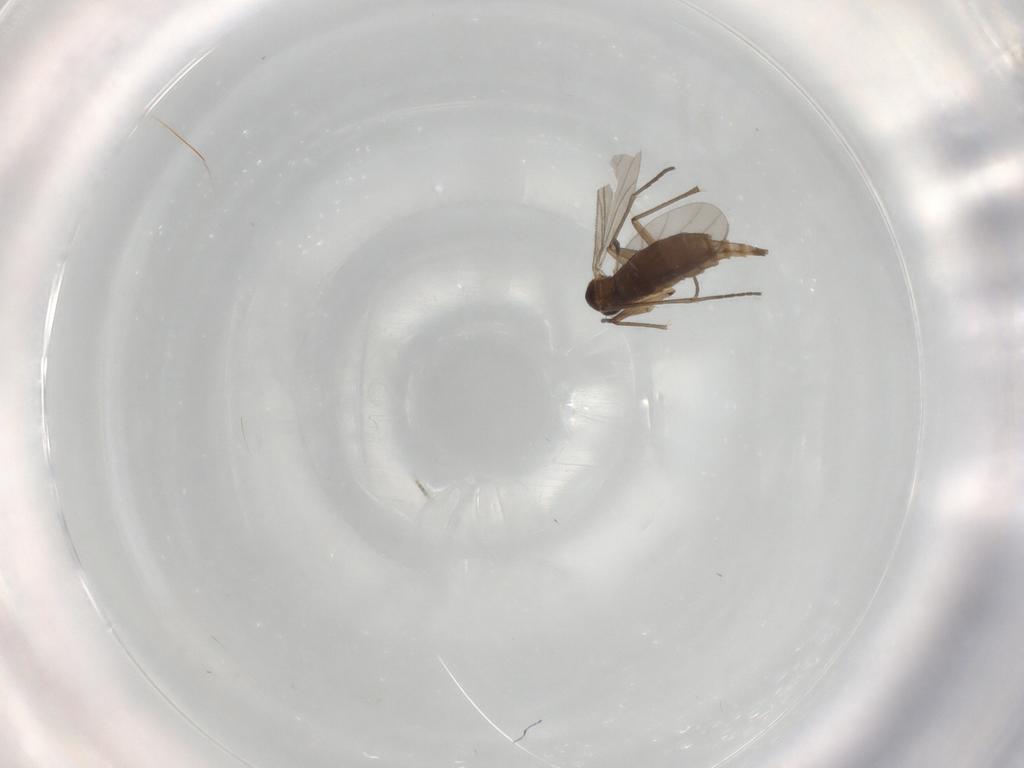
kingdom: Animalia
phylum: Arthropoda
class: Insecta
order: Diptera
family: Sciaridae
